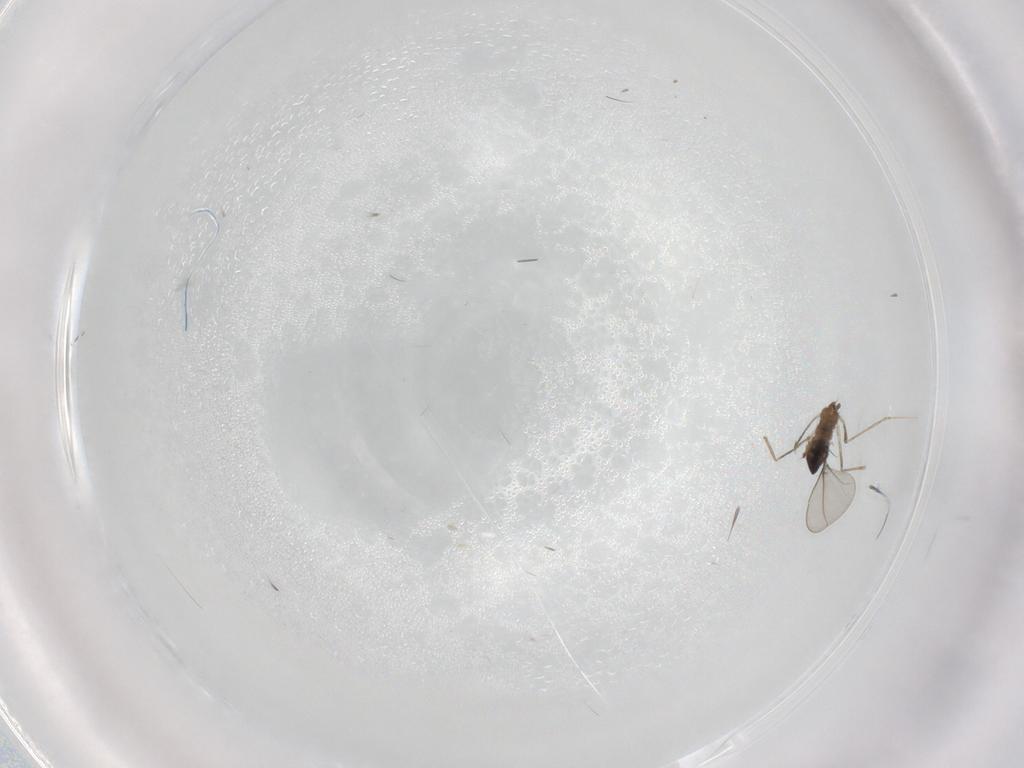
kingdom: Animalia
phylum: Arthropoda
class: Insecta
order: Diptera
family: Cecidomyiidae
